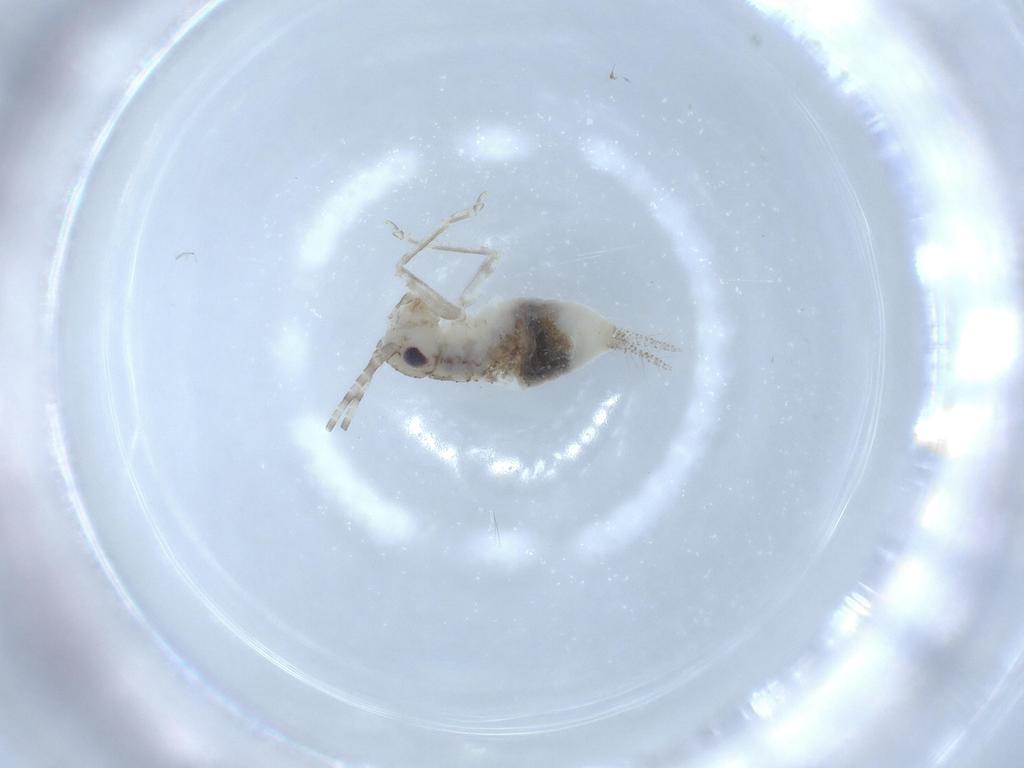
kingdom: Animalia
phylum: Arthropoda
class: Insecta
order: Orthoptera
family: Trigonidiidae
